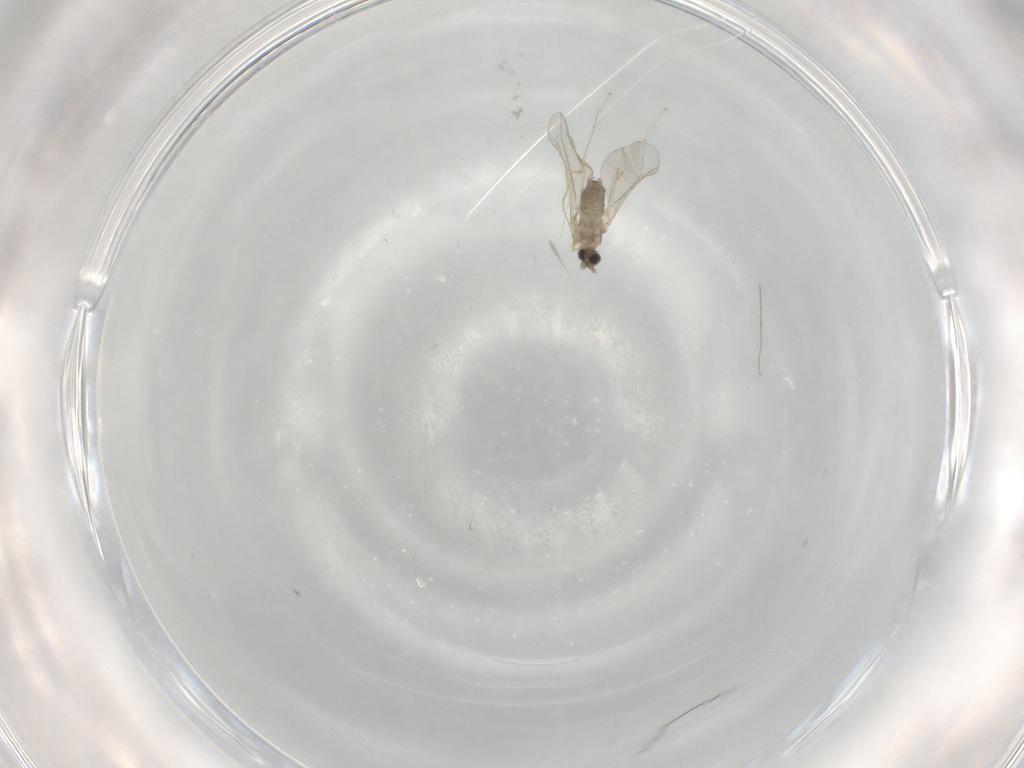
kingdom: Animalia
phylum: Arthropoda
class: Insecta
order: Diptera
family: Cecidomyiidae
